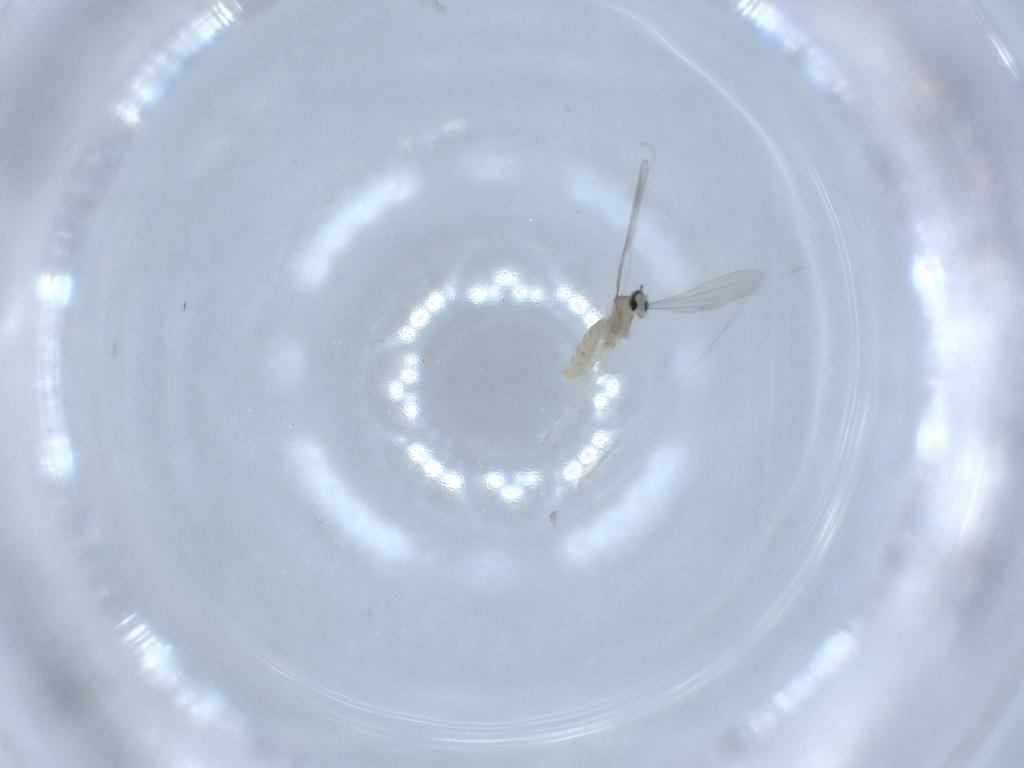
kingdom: Animalia
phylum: Arthropoda
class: Insecta
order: Diptera
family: Cecidomyiidae
